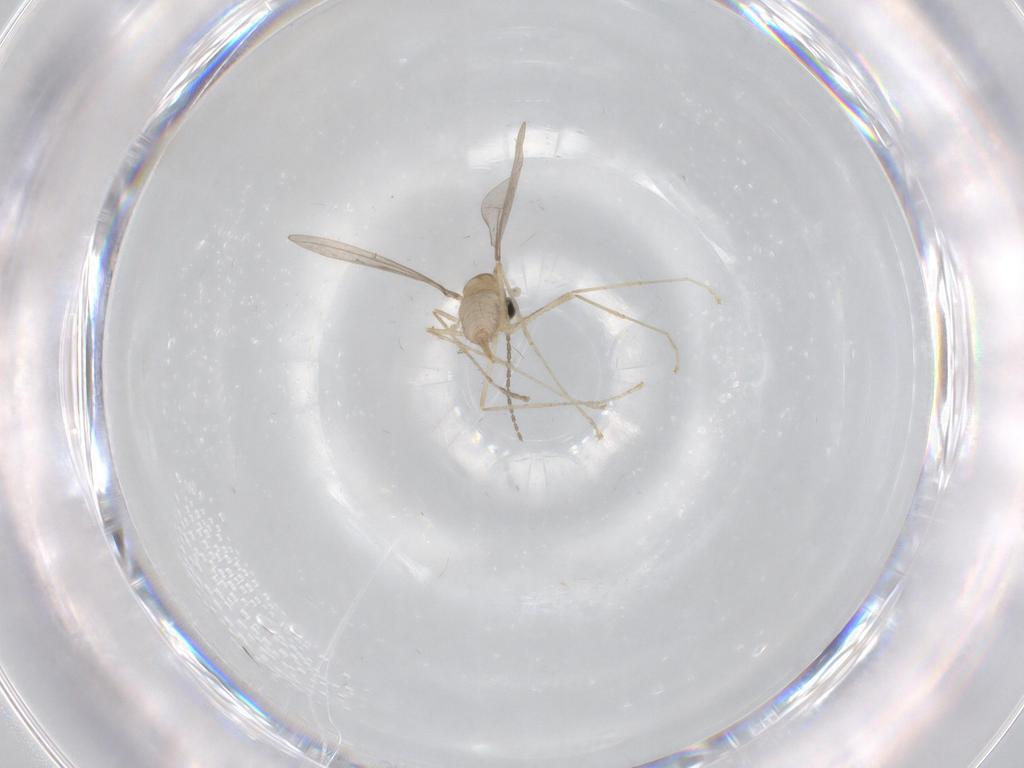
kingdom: Animalia
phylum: Arthropoda
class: Insecta
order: Diptera
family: Cecidomyiidae
